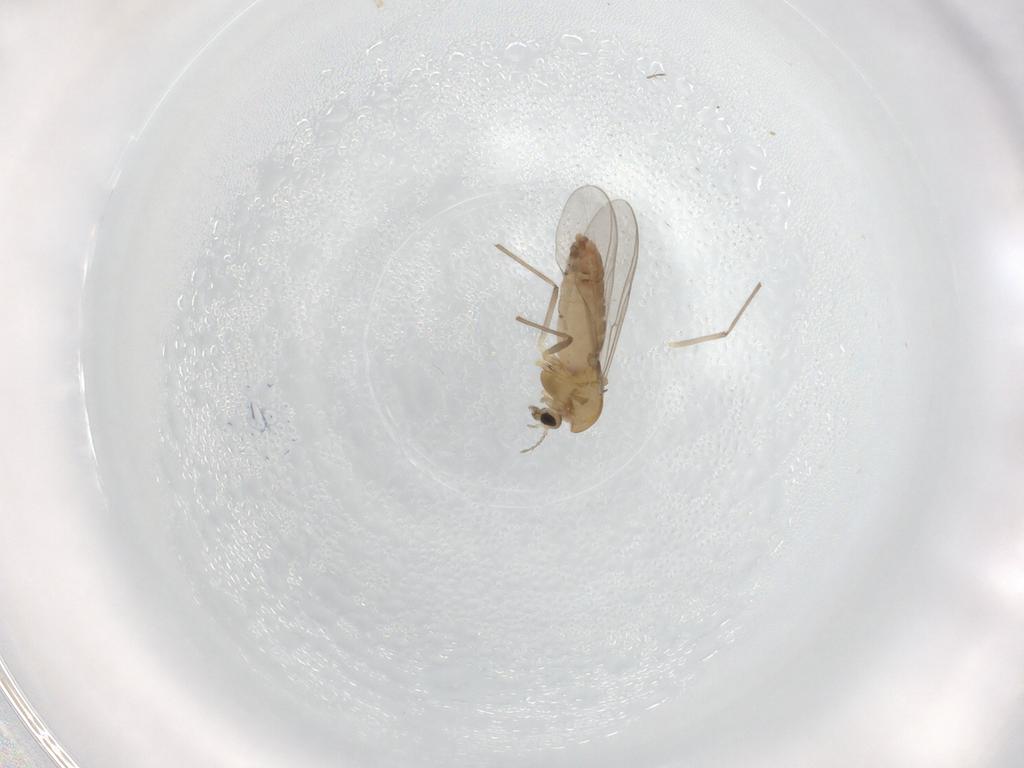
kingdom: Animalia
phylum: Arthropoda
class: Insecta
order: Diptera
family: Chironomidae
